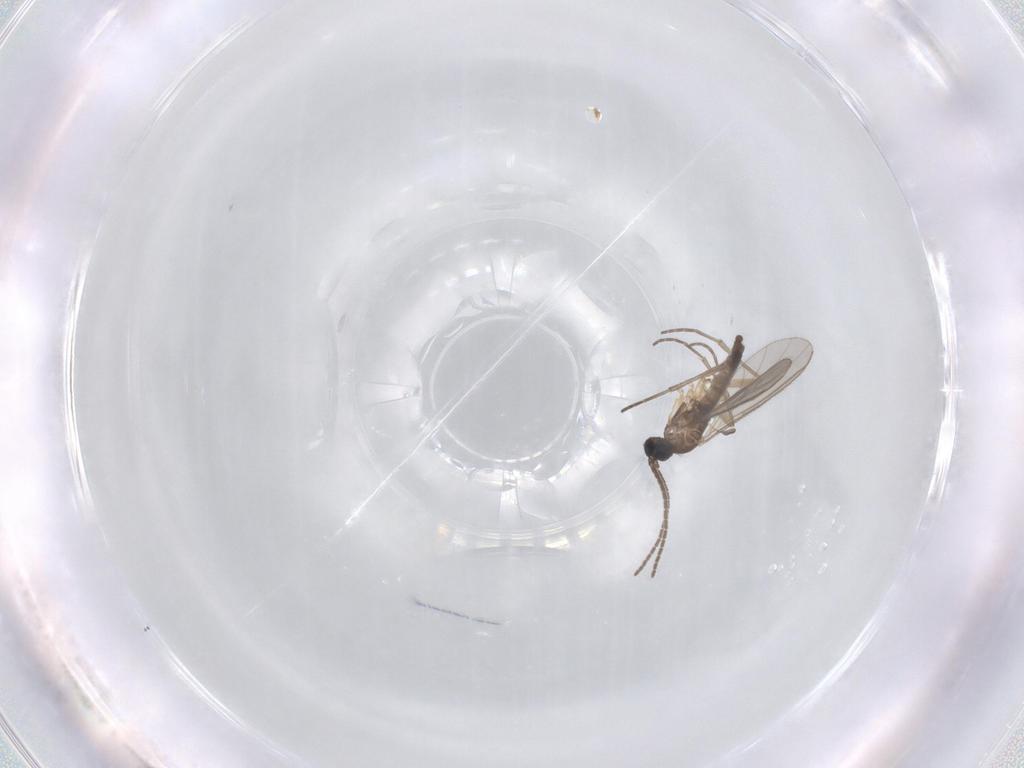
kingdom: Animalia
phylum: Arthropoda
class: Insecta
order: Diptera
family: Sciaridae
